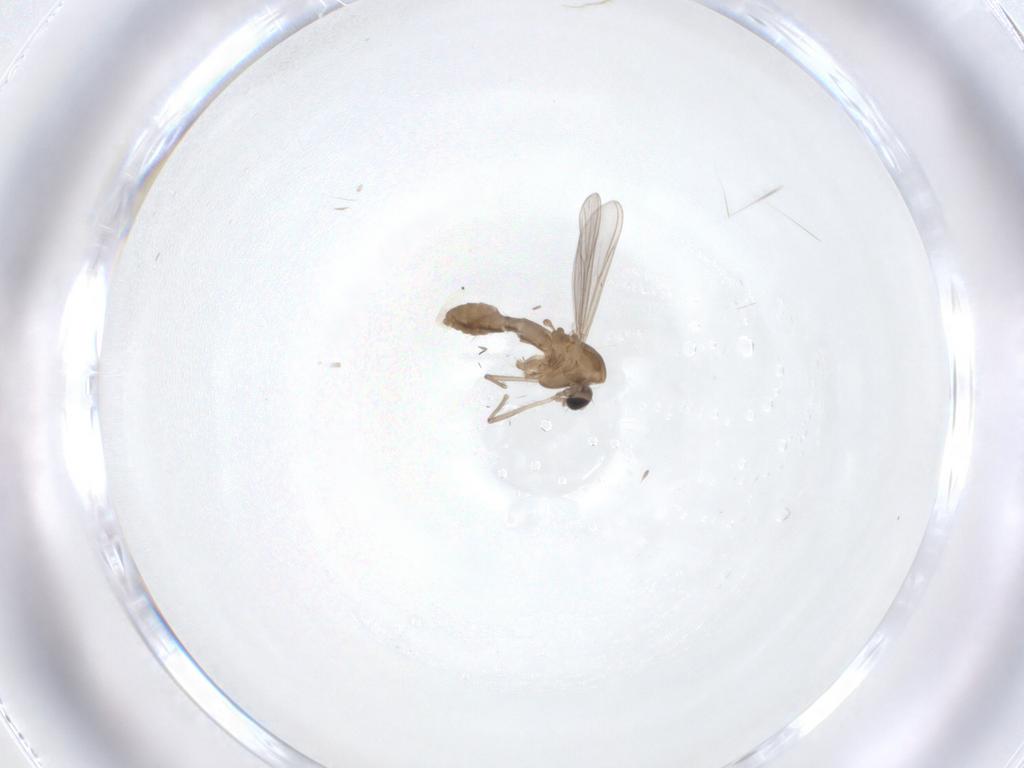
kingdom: Animalia
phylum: Arthropoda
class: Insecta
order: Diptera
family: Chironomidae
